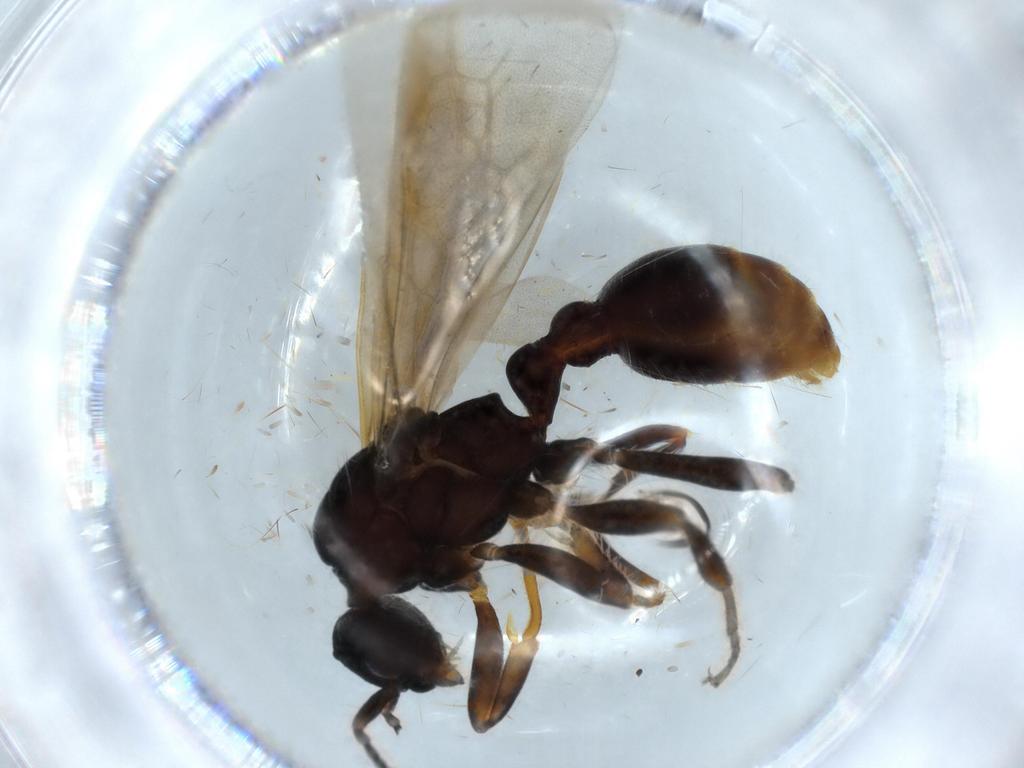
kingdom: Animalia
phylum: Arthropoda
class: Insecta
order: Hymenoptera
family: Formicidae
